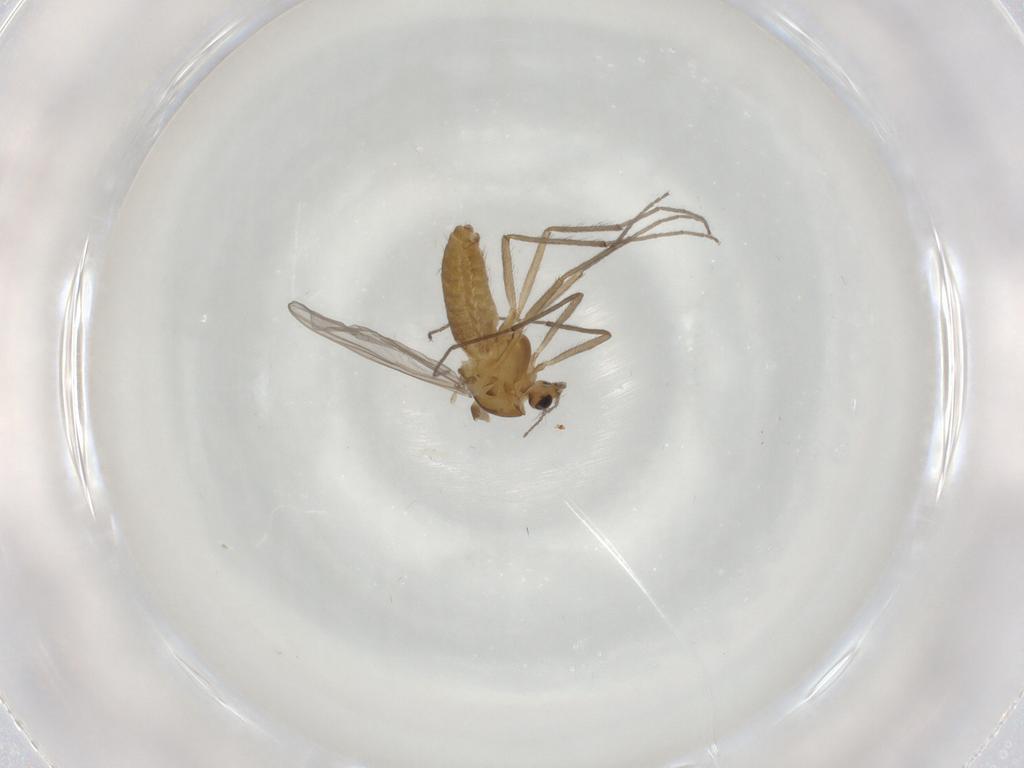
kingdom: Animalia
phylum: Arthropoda
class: Insecta
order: Diptera
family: Chironomidae
